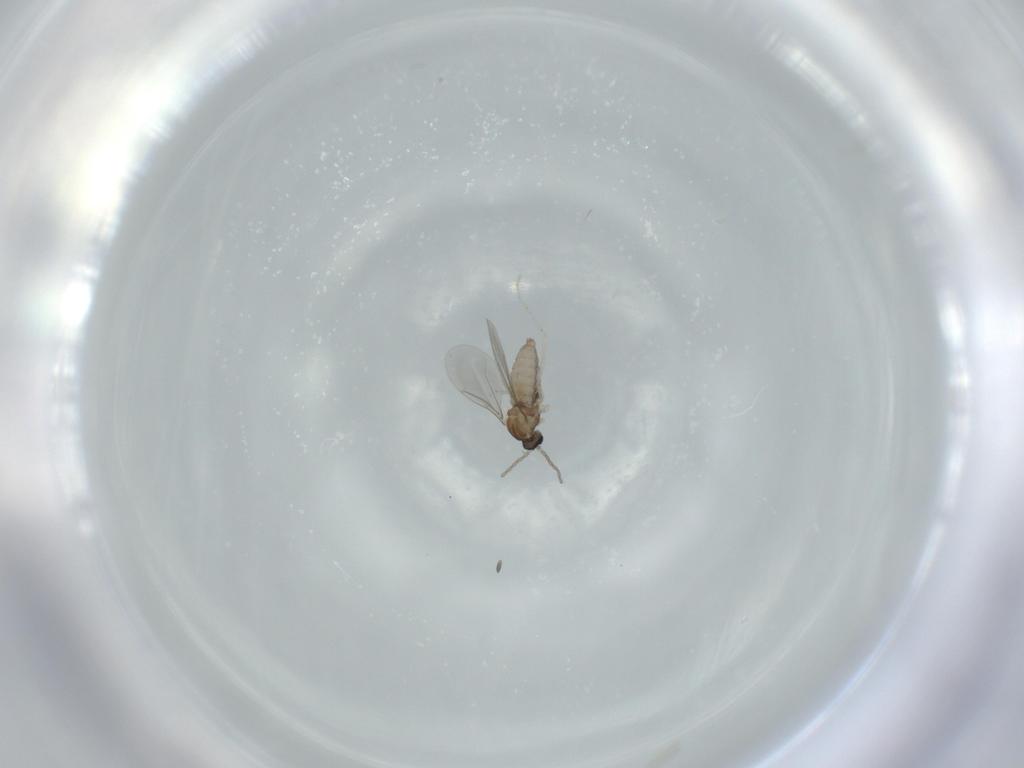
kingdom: Animalia
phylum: Arthropoda
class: Insecta
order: Diptera
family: Cecidomyiidae
